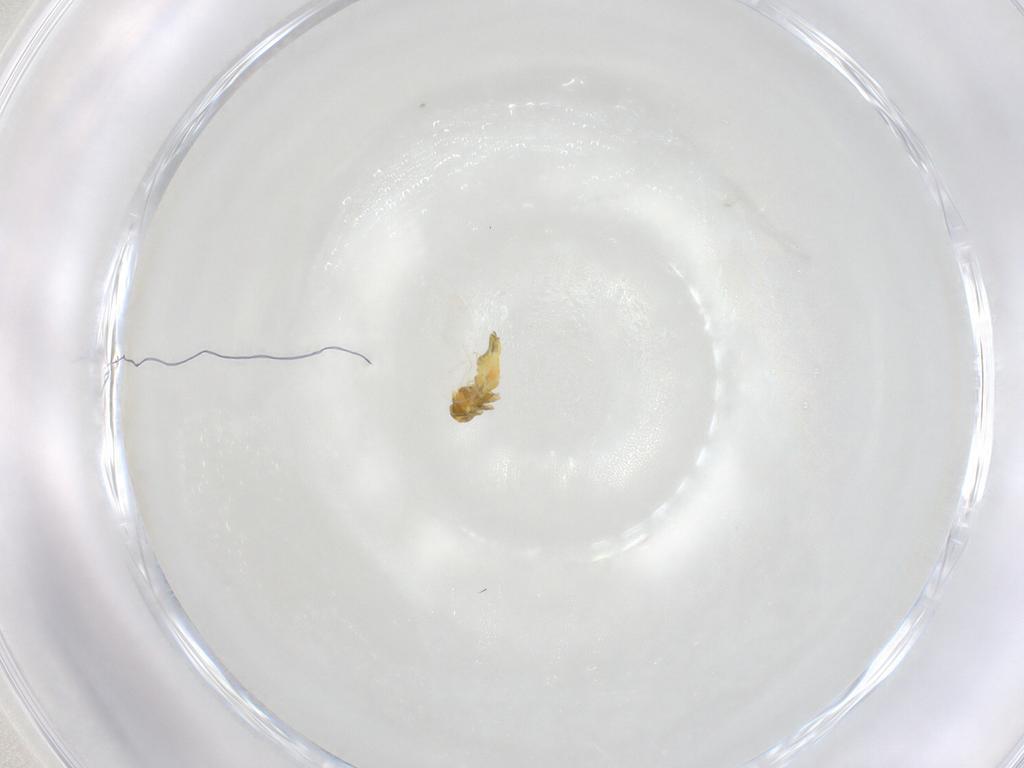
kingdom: Animalia
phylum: Arthropoda
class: Insecta
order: Hemiptera
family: Aleyrodidae
